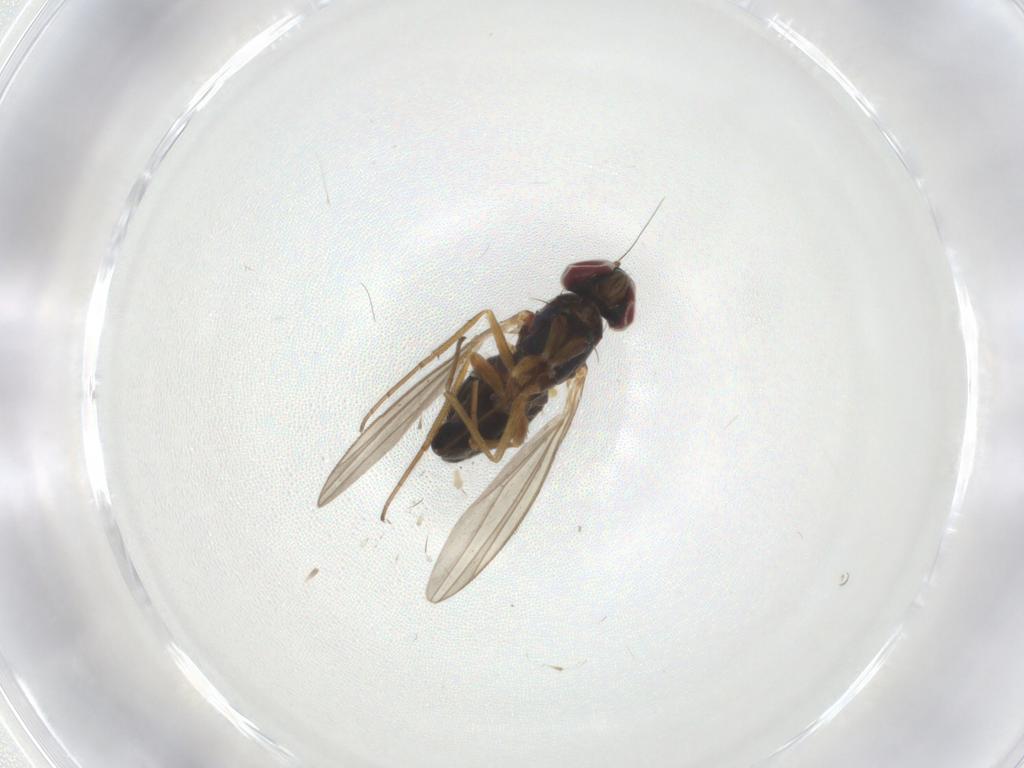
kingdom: Animalia
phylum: Arthropoda
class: Insecta
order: Diptera
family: Dolichopodidae
